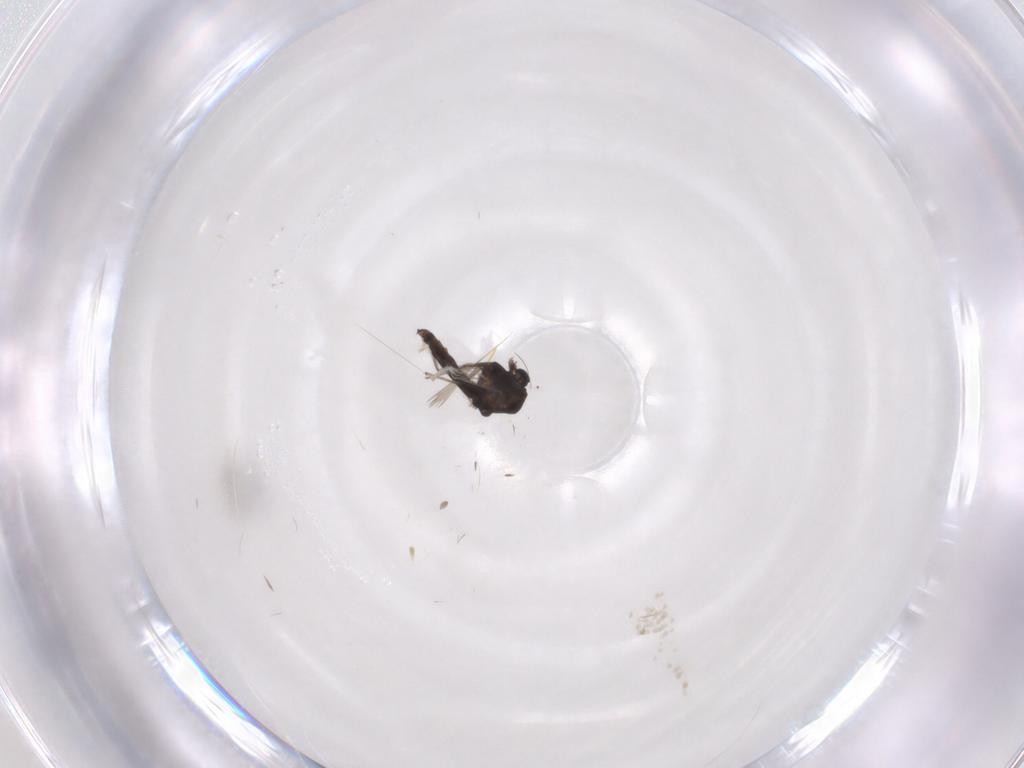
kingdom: Animalia
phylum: Arthropoda
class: Insecta
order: Diptera
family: Chironomidae
